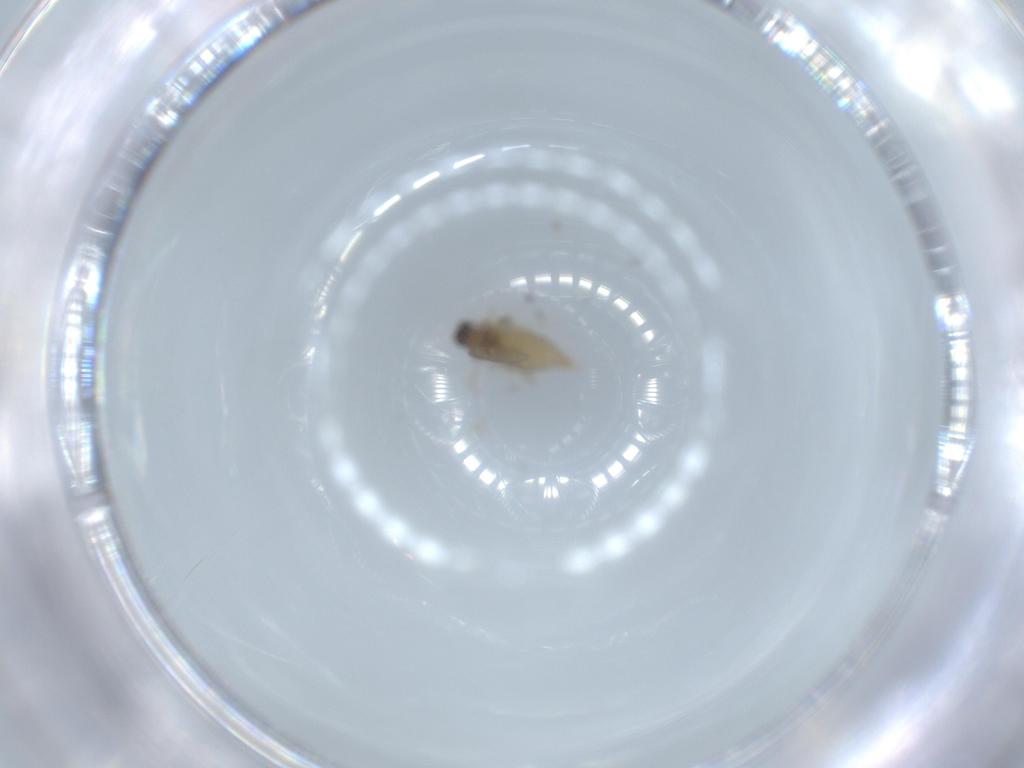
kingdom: Animalia
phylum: Arthropoda
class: Insecta
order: Diptera
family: Cecidomyiidae
